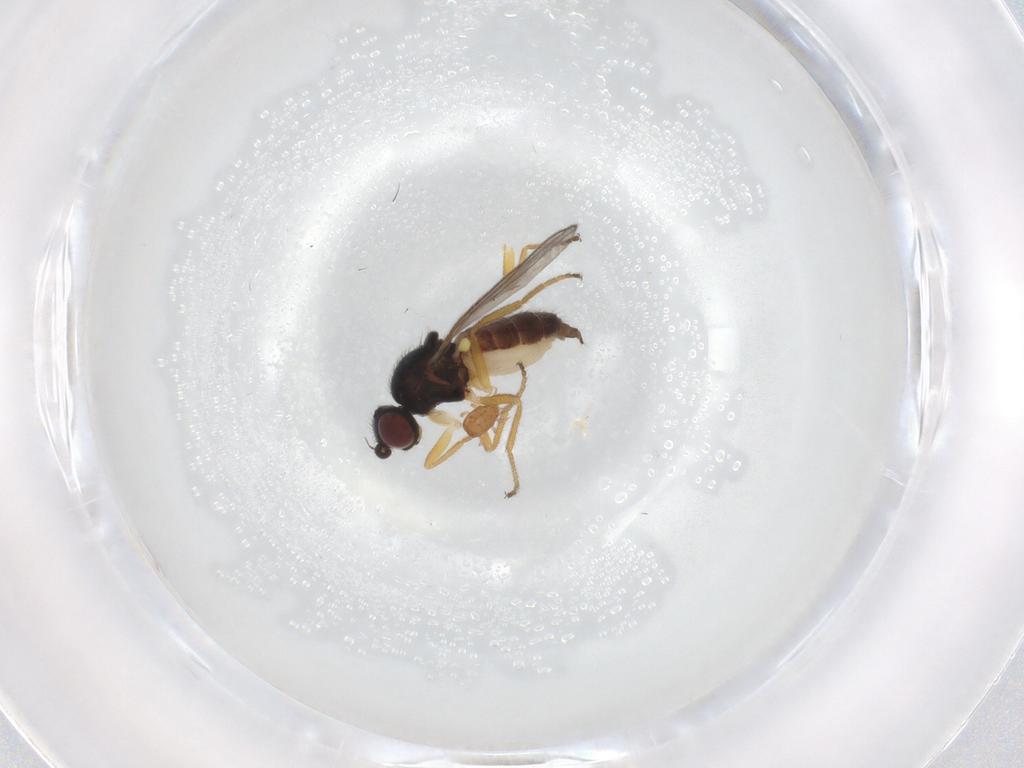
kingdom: Animalia
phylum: Arthropoda
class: Insecta
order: Diptera
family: Chloropidae
